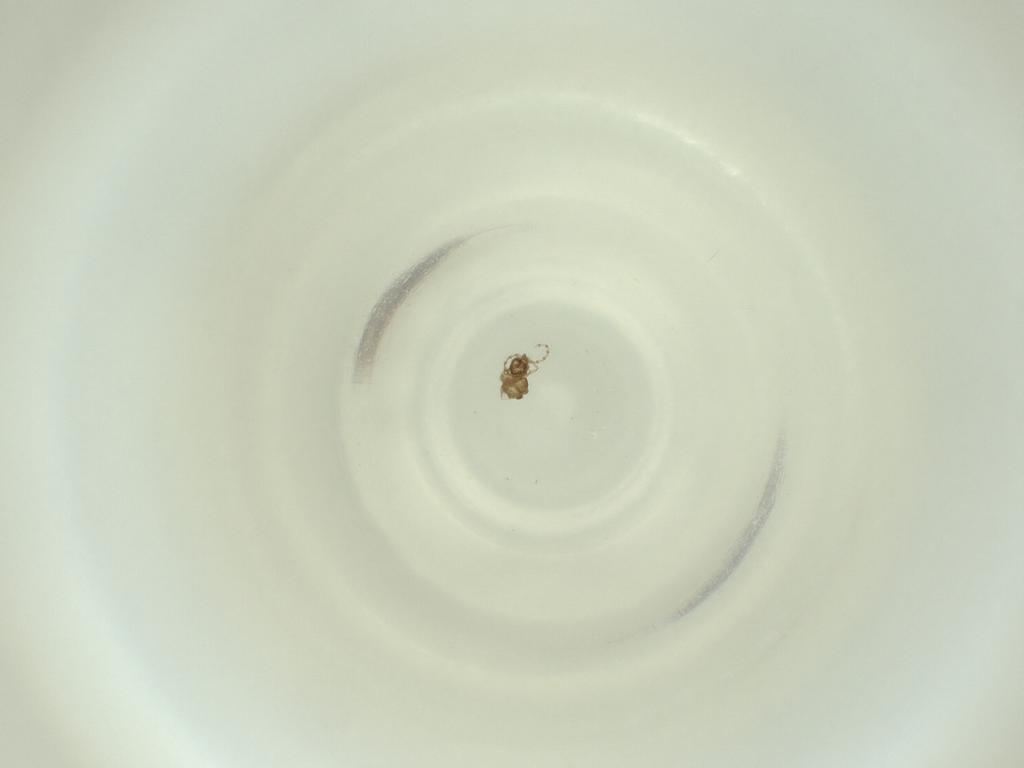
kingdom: Animalia
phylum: Arthropoda
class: Insecta
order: Diptera
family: Cecidomyiidae
